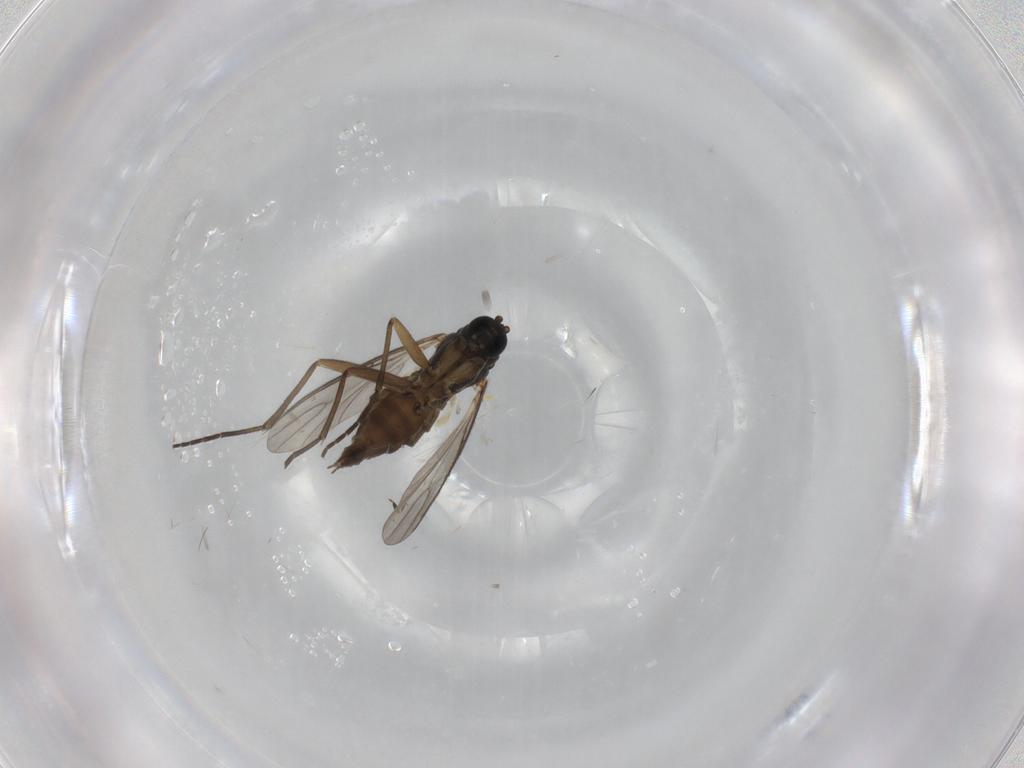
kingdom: Animalia
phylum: Arthropoda
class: Insecta
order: Diptera
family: Sciaridae
